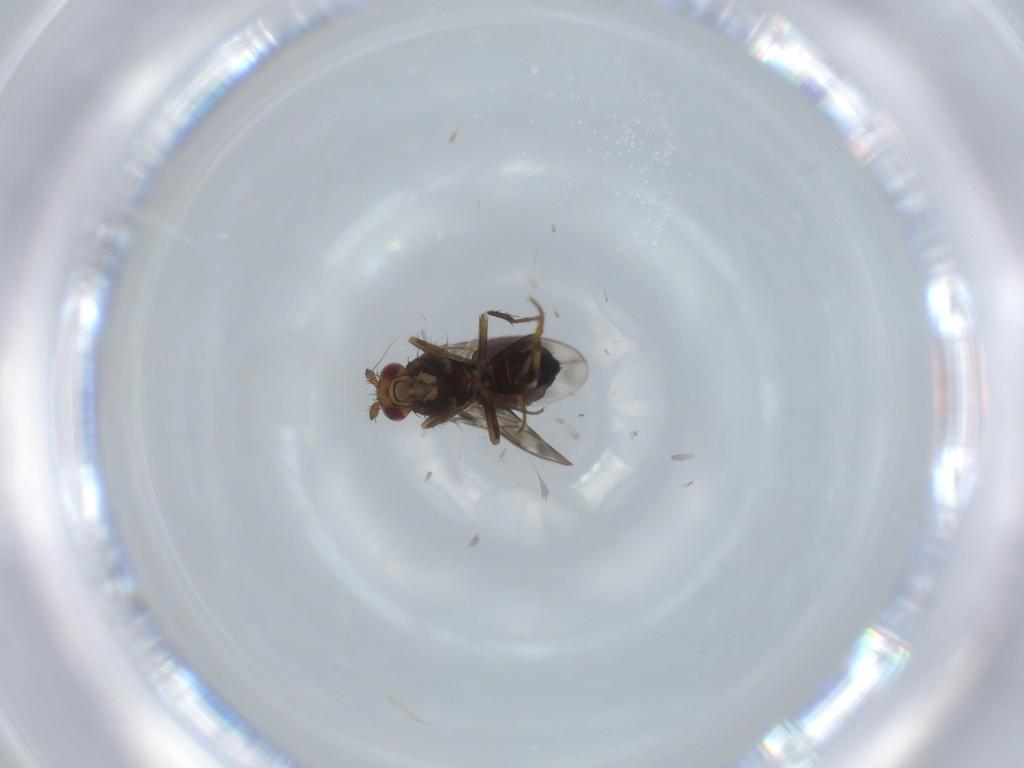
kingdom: Animalia
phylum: Arthropoda
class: Insecta
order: Diptera
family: Sphaeroceridae
